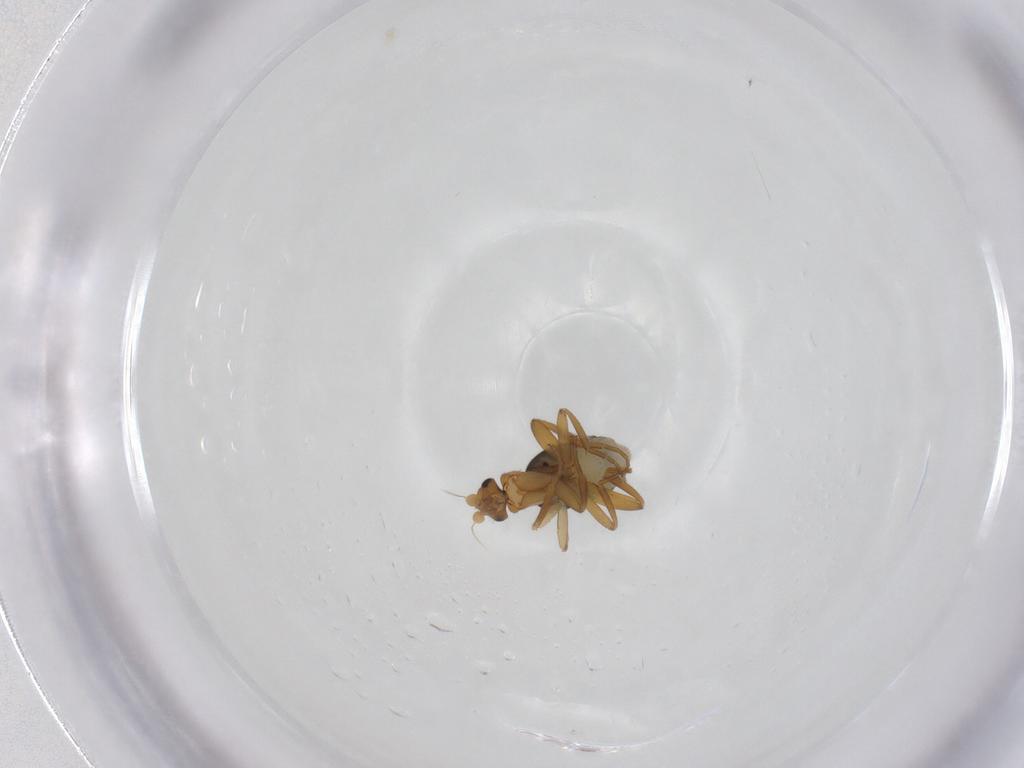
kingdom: Animalia
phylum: Arthropoda
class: Insecta
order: Diptera
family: Phoridae
